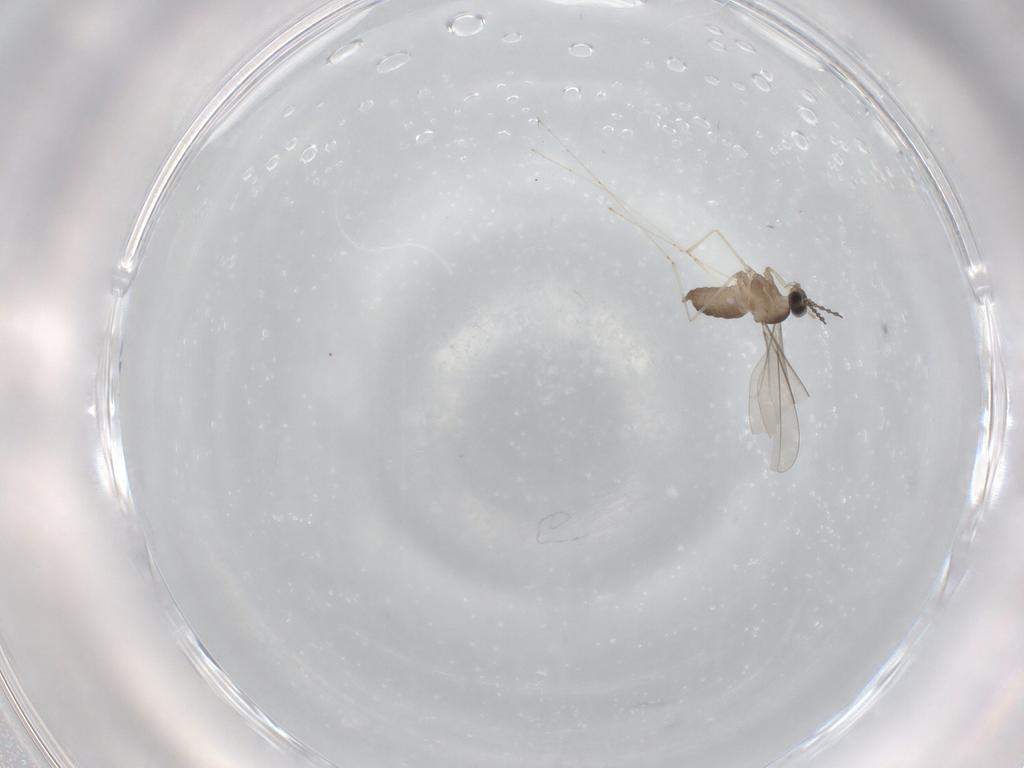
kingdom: Animalia
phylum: Arthropoda
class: Insecta
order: Diptera
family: Cecidomyiidae
